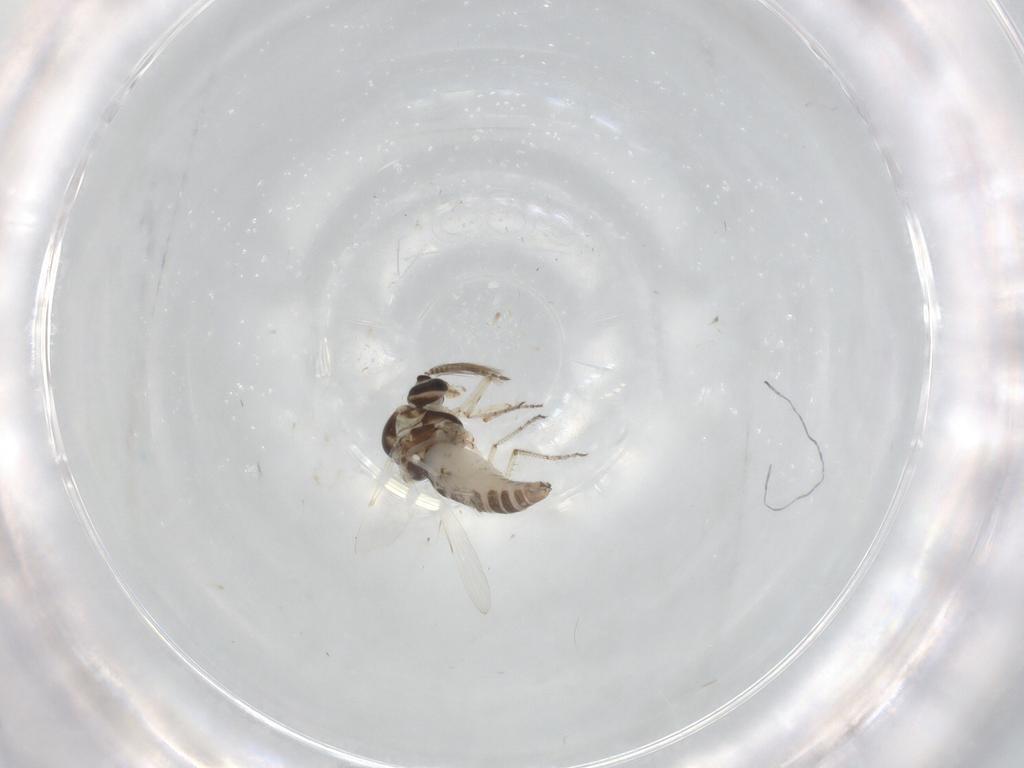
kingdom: Animalia
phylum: Arthropoda
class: Insecta
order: Diptera
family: Ceratopogonidae
